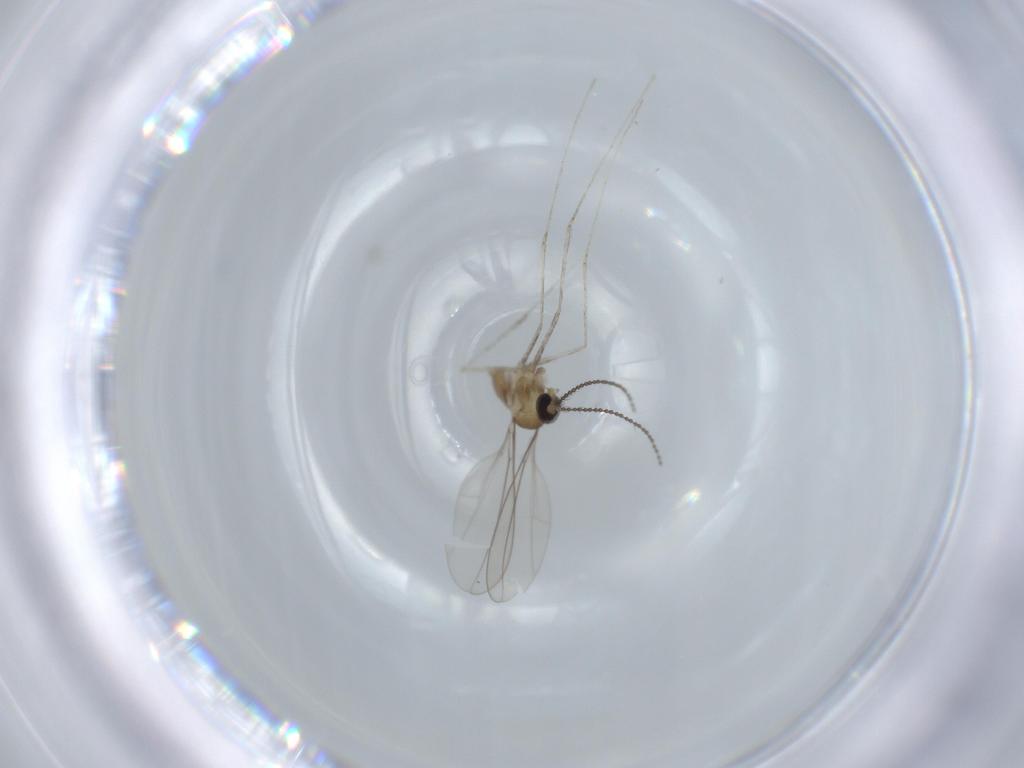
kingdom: Animalia
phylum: Arthropoda
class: Insecta
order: Diptera
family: Cecidomyiidae
